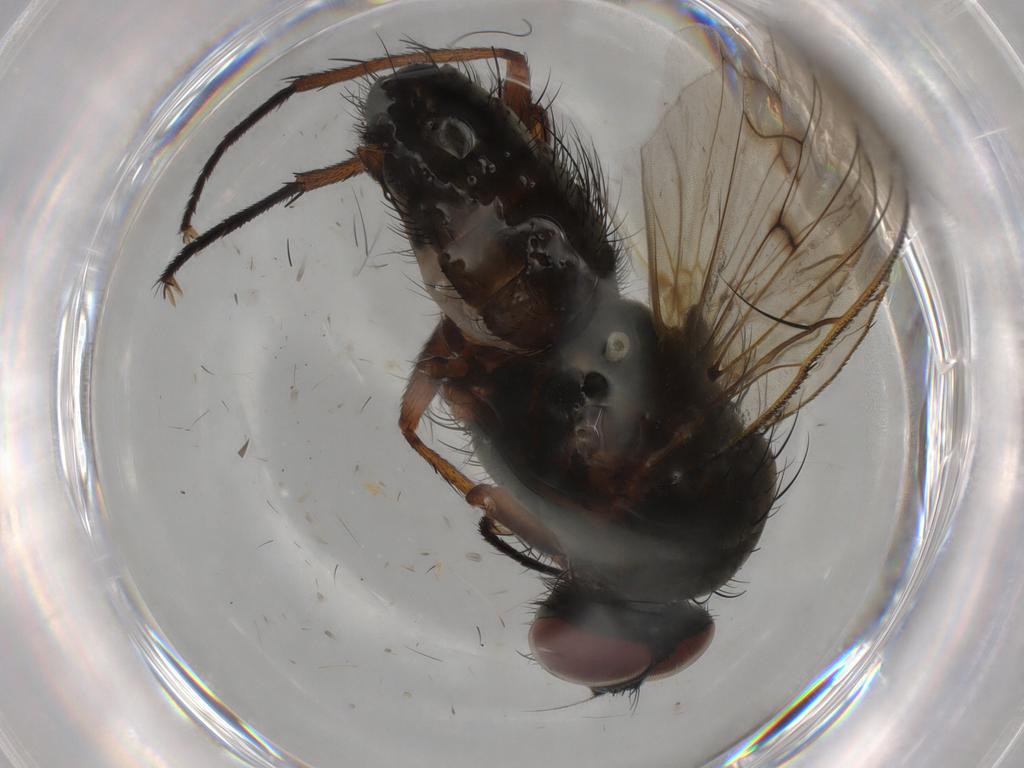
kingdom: Animalia
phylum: Arthropoda
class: Insecta
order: Diptera
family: Anthomyiidae
